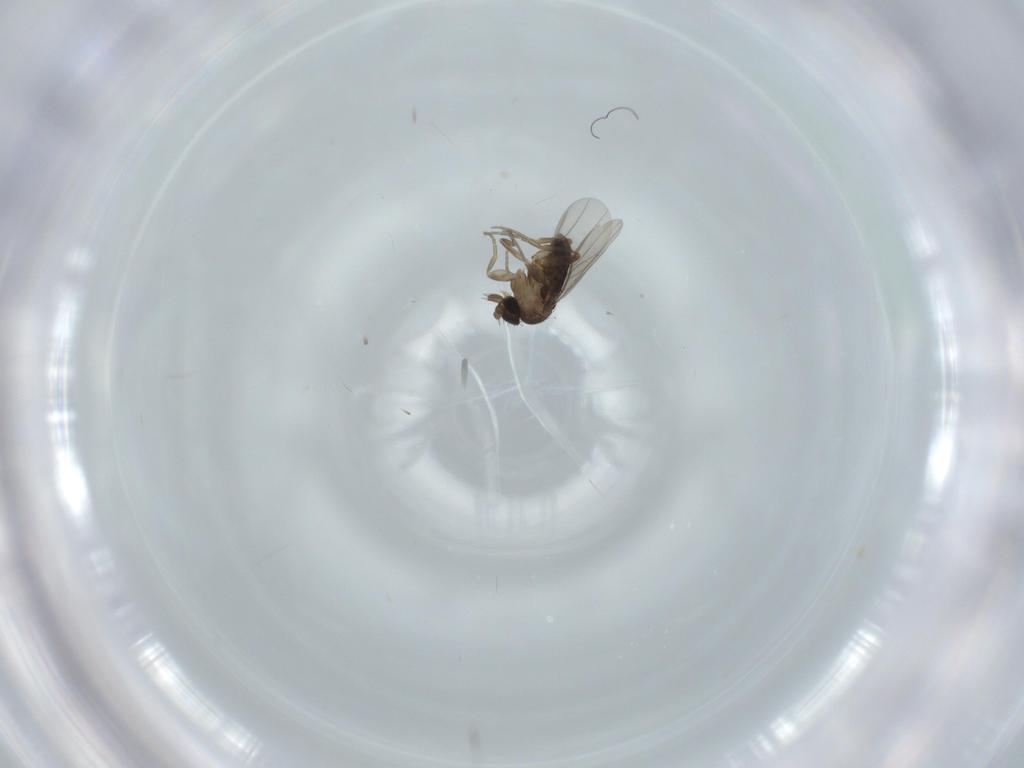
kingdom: Animalia
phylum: Arthropoda
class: Insecta
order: Diptera
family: Phoridae
